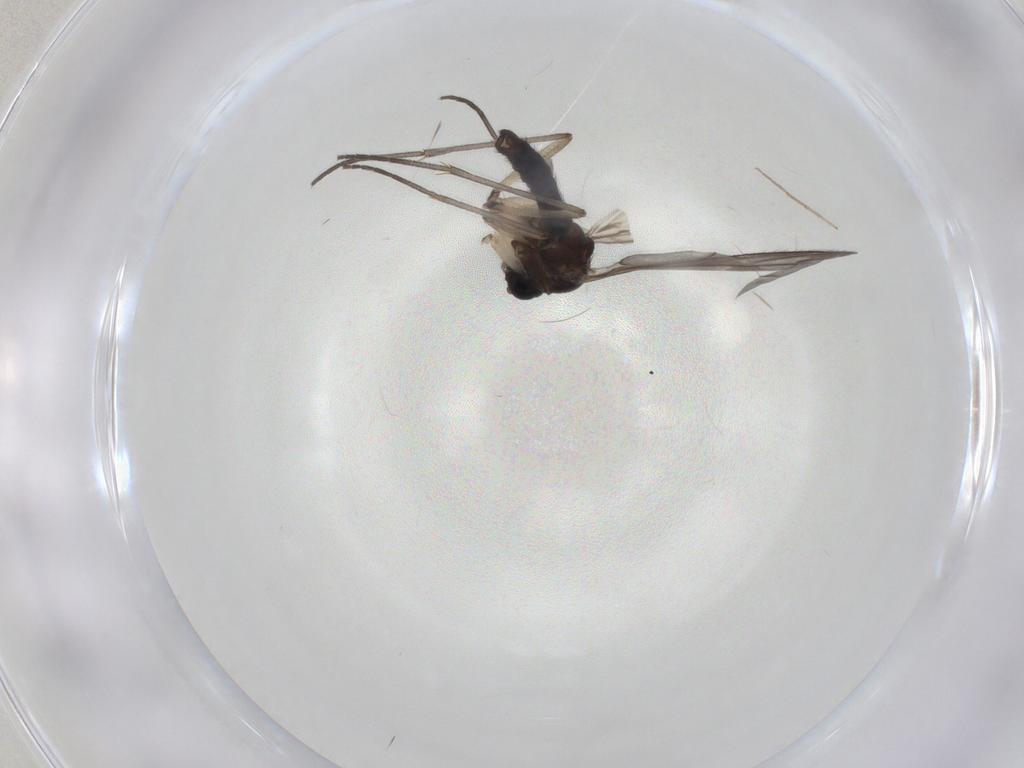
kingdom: Animalia
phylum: Arthropoda
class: Insecta
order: Diptera
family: Sciaridae
